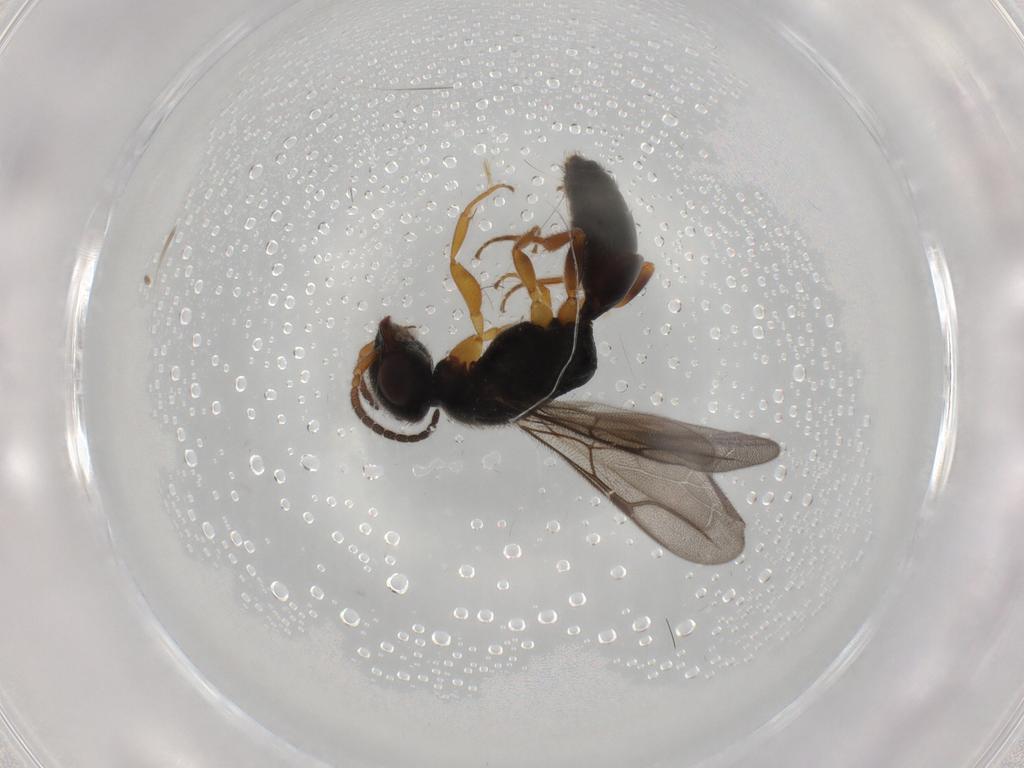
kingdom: Animalia
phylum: Arthropoda
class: Insecta
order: Hymenoptera
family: Bethylidae
